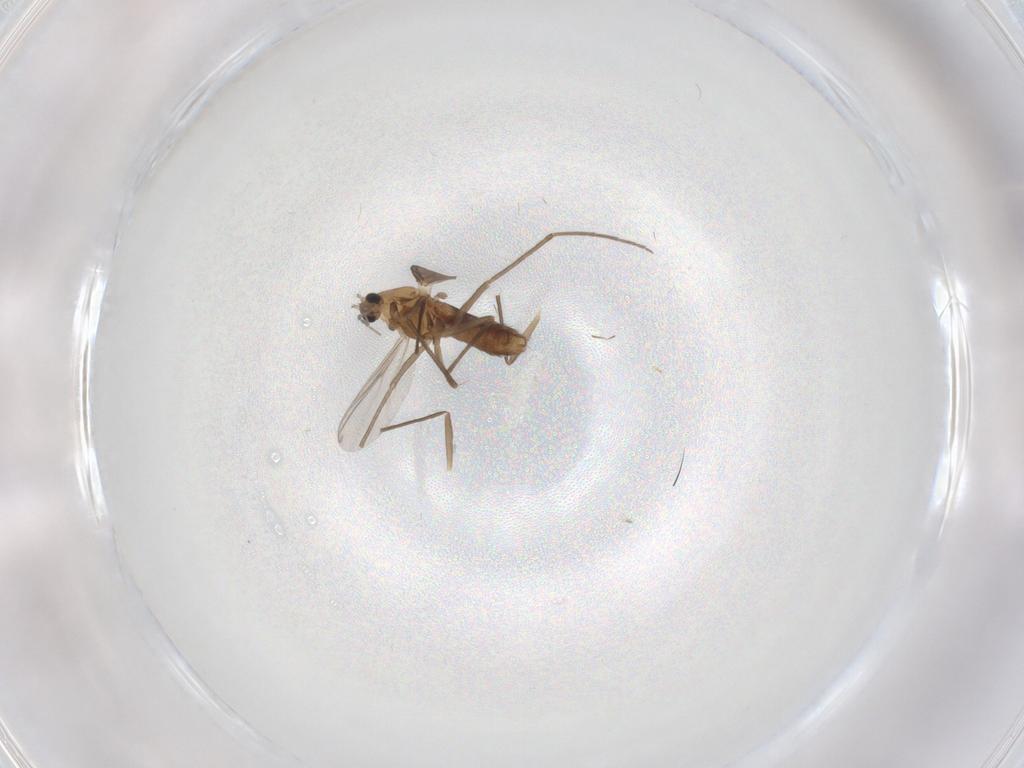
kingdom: Animalia
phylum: Arthropoda
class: Insecta
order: Diptera
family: Chironomidae
